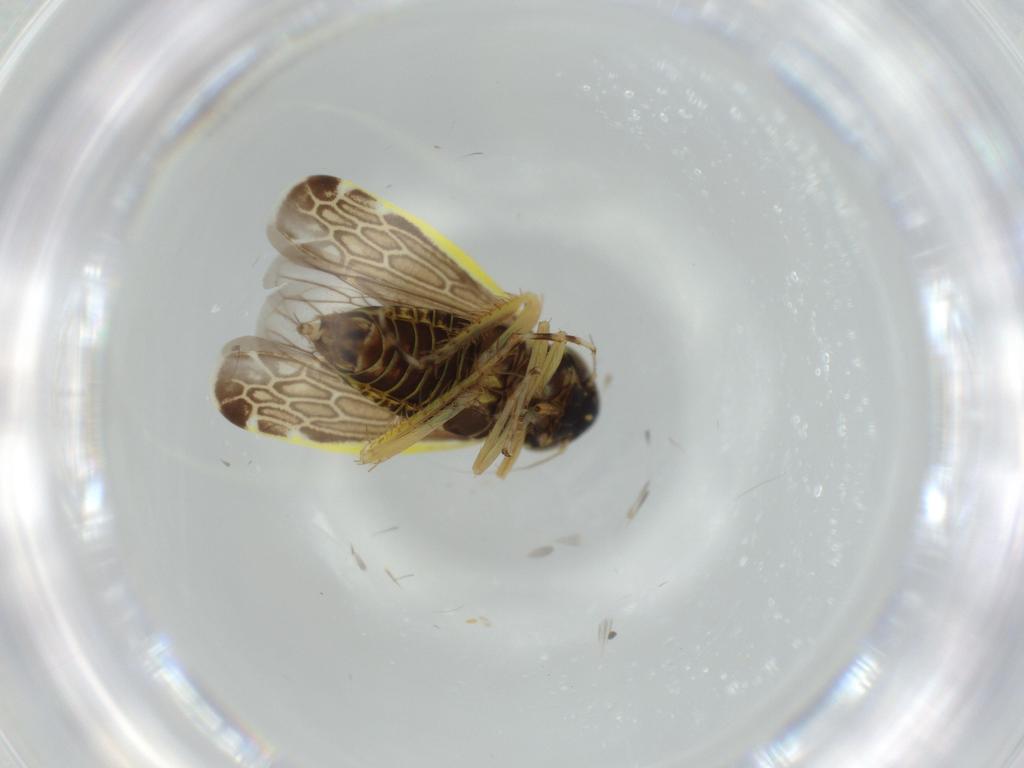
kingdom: Animalia
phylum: Arthropoda
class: Insecta
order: Hemiptera
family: Cicadellidae
